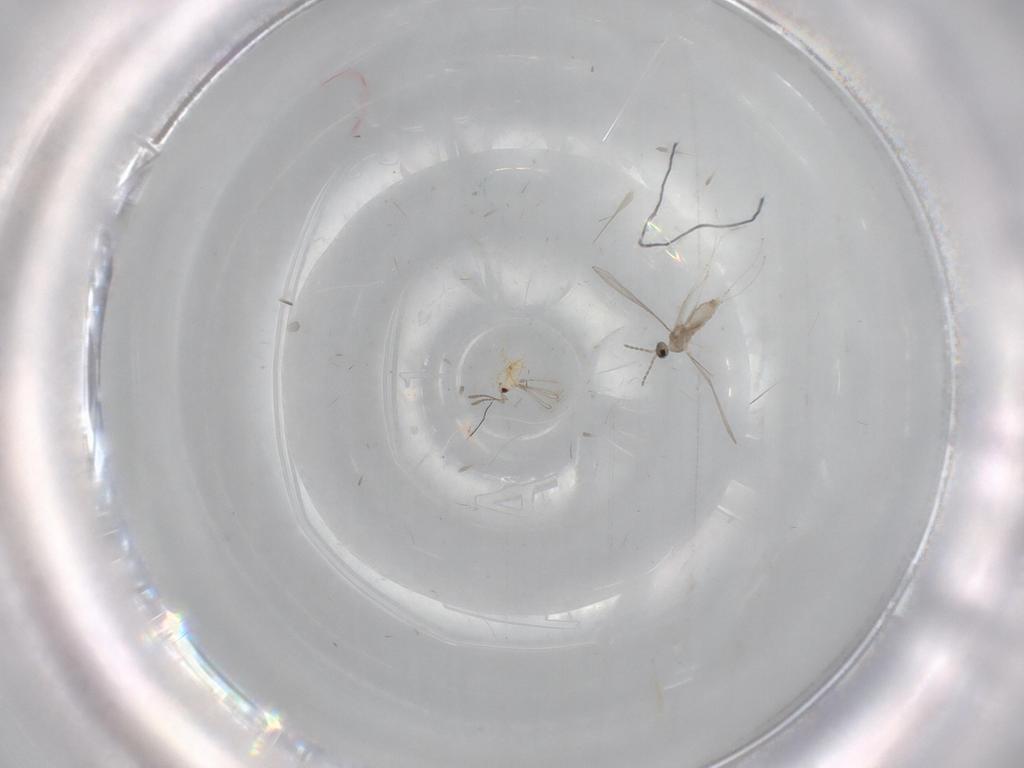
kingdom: Animalia
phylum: Arthropoda
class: Insecta
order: Diptera
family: Cecidomyiidae
